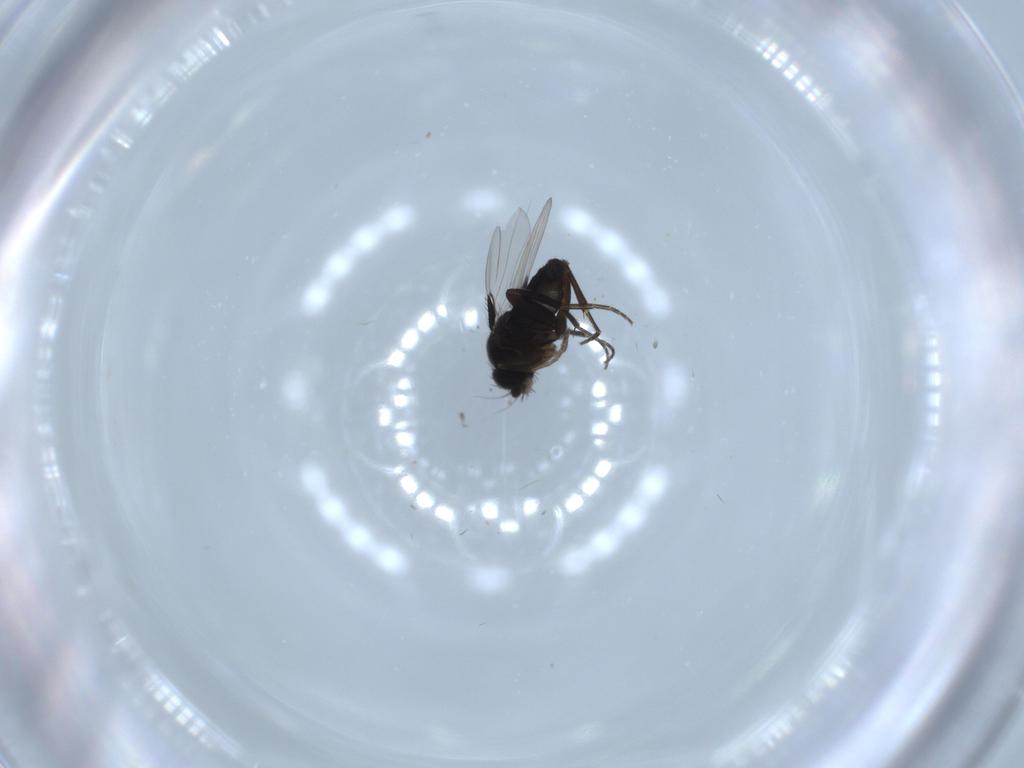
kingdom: Animalia
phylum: Arthropoda
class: Insecta
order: Diptera
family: Phoridae
